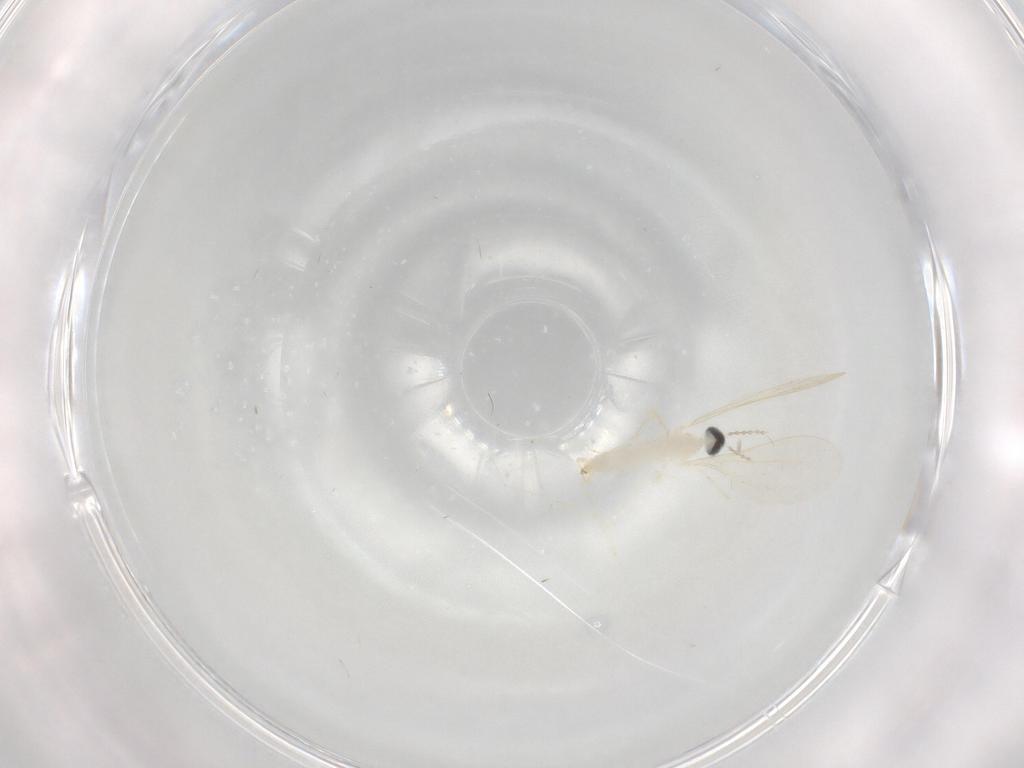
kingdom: Animalia
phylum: Arthropoda
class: Insecta
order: Diptera
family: Cecidomyiidae
